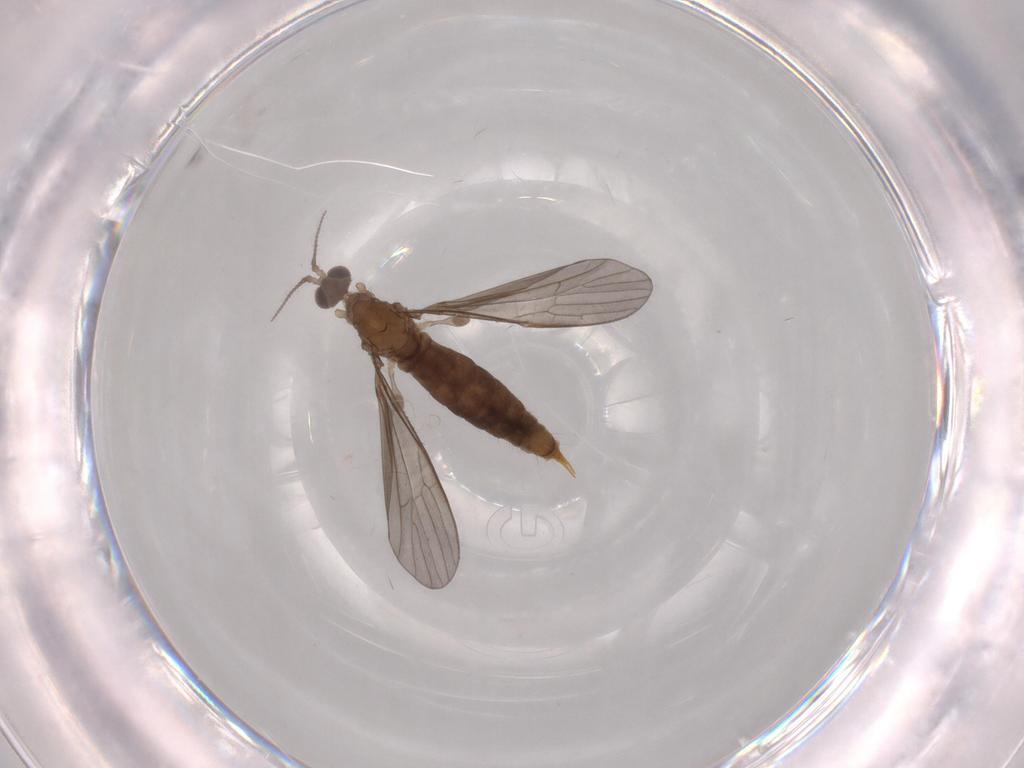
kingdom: Animalia
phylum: Arthropoda
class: Insecta
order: Diptera
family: Limoniidae
